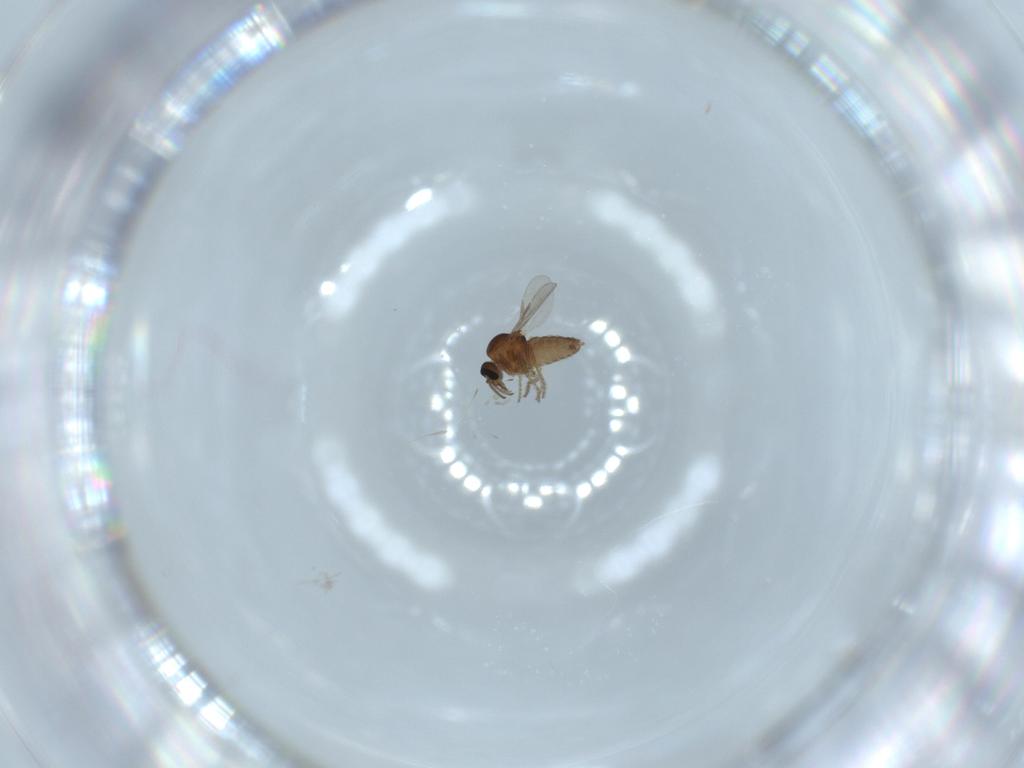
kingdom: Animalia
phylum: Arthropoda
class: Insecta
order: Diptera
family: Ceratopogonidae
